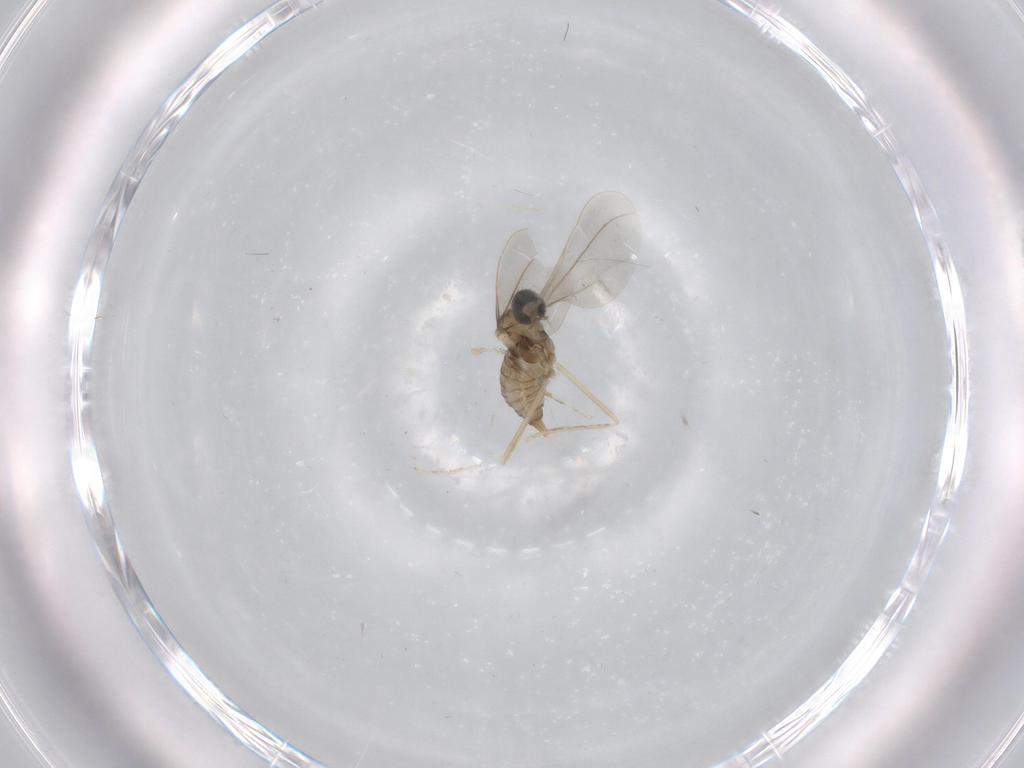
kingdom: Animalia
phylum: Arthropoda
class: Insecta
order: Diptera
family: Cecidomyiidae
